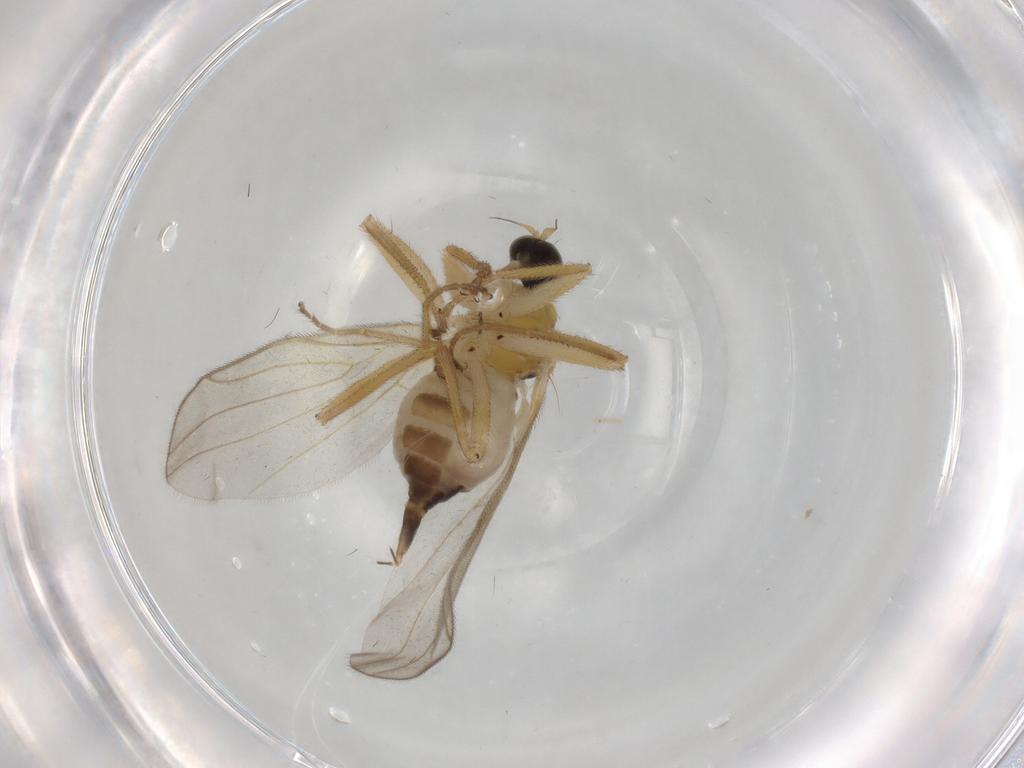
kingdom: Animalia
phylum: Arthropoda
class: Insecta
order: Diptera
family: Hybotidae
